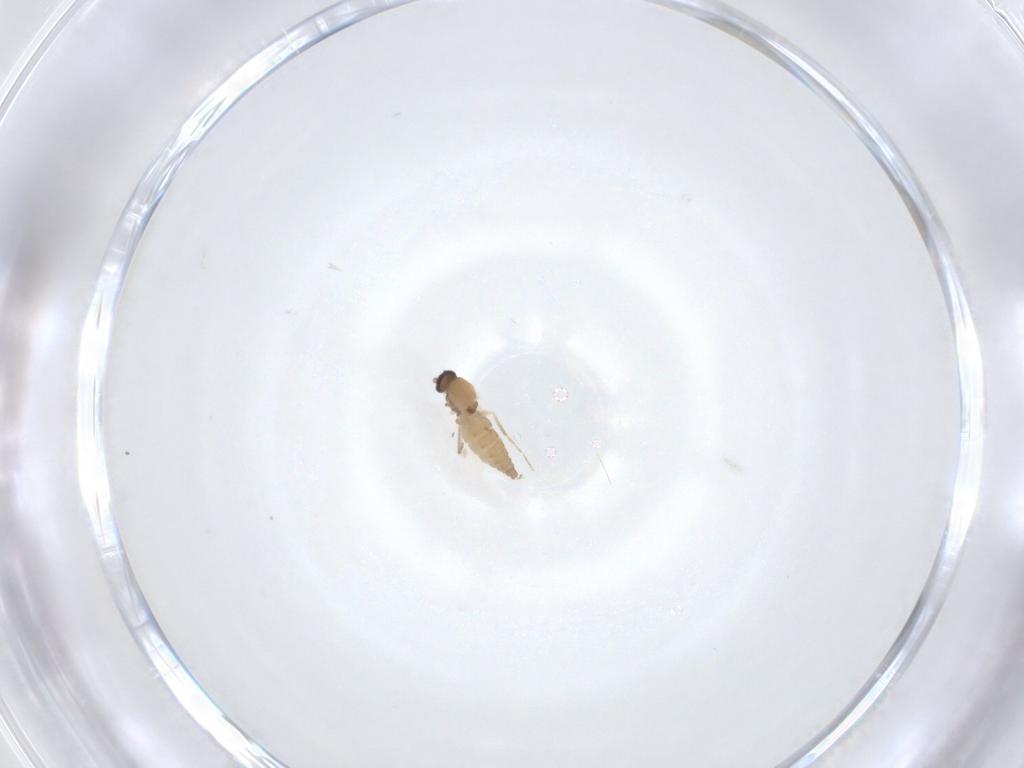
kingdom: Animalia
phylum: Arthropoda
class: Insecta
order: Diptera
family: Ceratopogonidae
